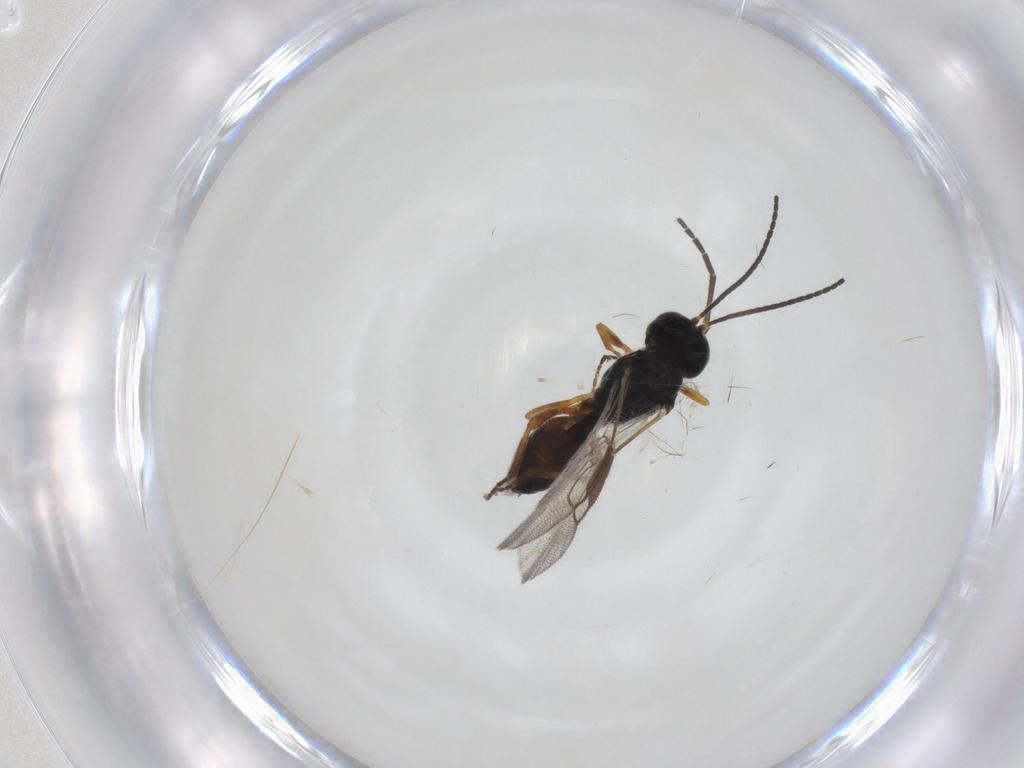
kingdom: Animalia
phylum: Arthropoda
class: Insecta
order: Hymenoptera
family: Braconidae
